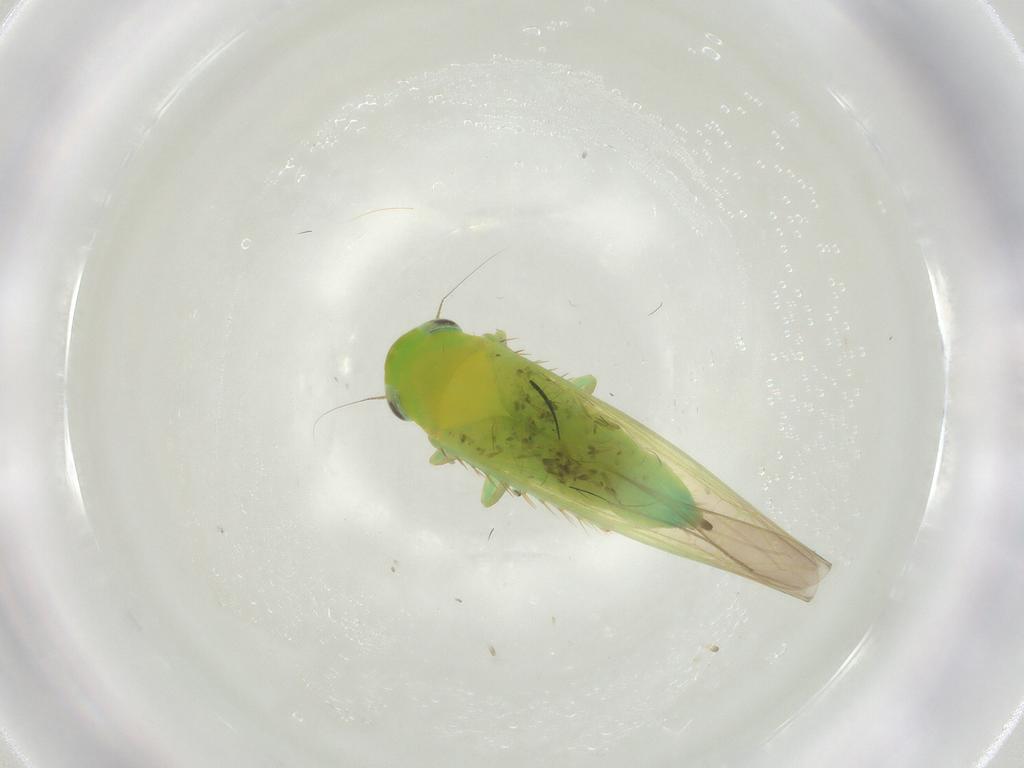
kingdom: Animalia
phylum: Arthropoda
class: Insecta
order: Hemiptera
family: Cicadellidae
